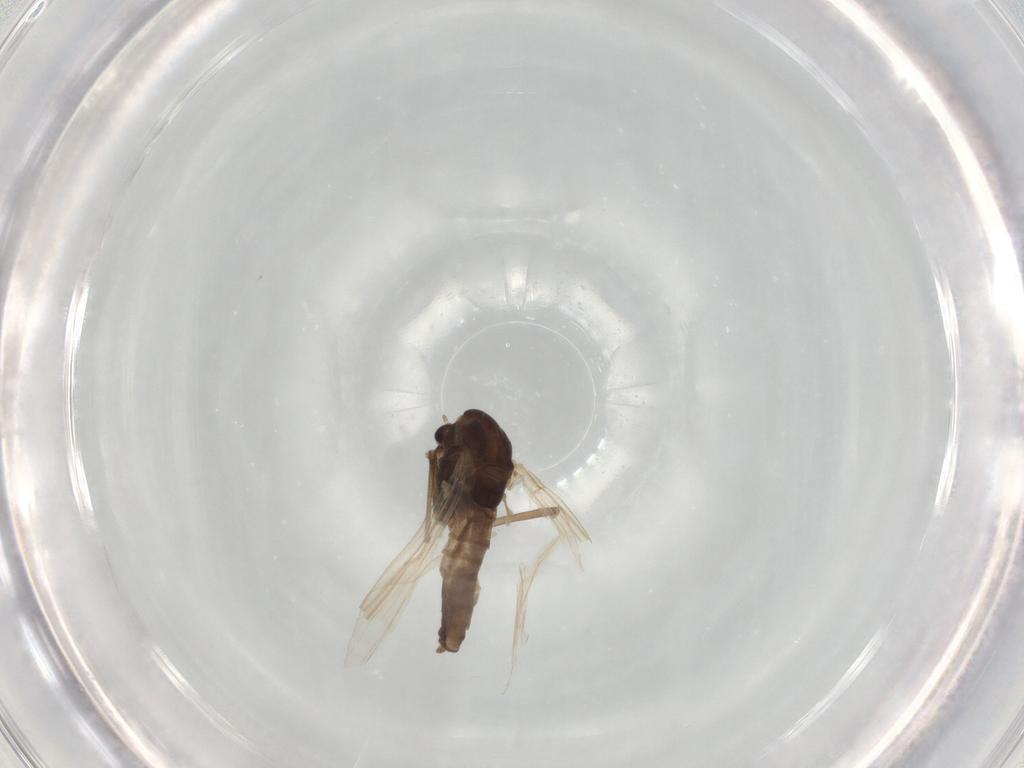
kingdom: Animalia
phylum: Arthropoda
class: Insecta
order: Diptera
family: Chironomidae
